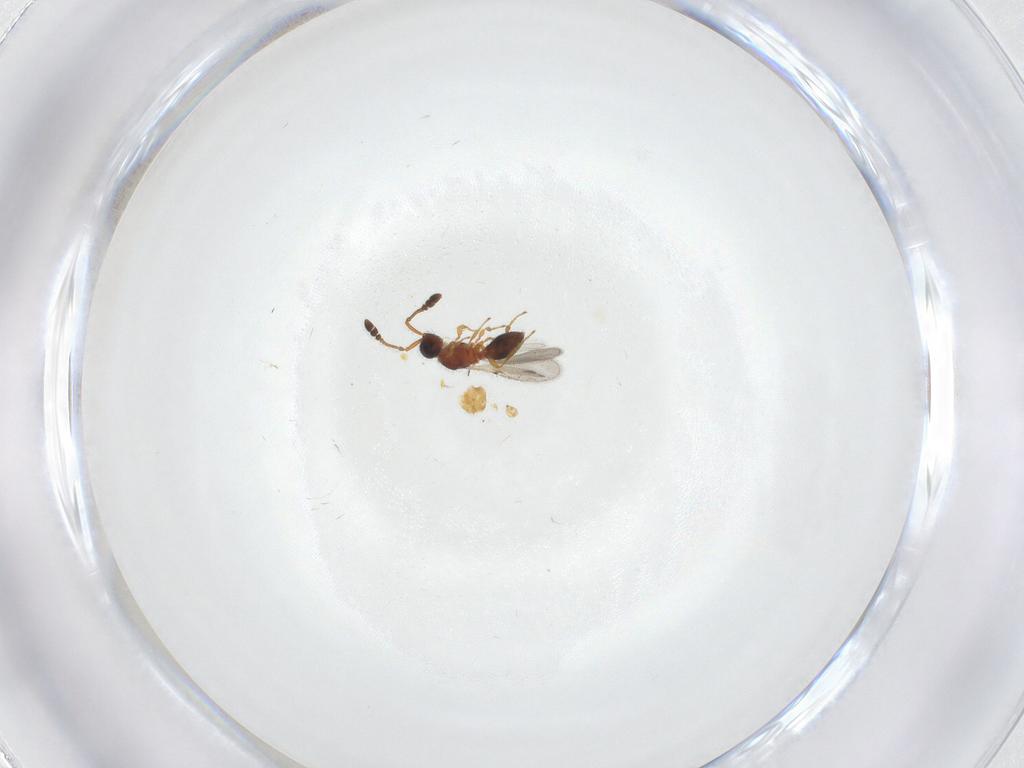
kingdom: Animalia
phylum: Arthropoda
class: Insecta
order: Hymenoptera
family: Diapriidae
